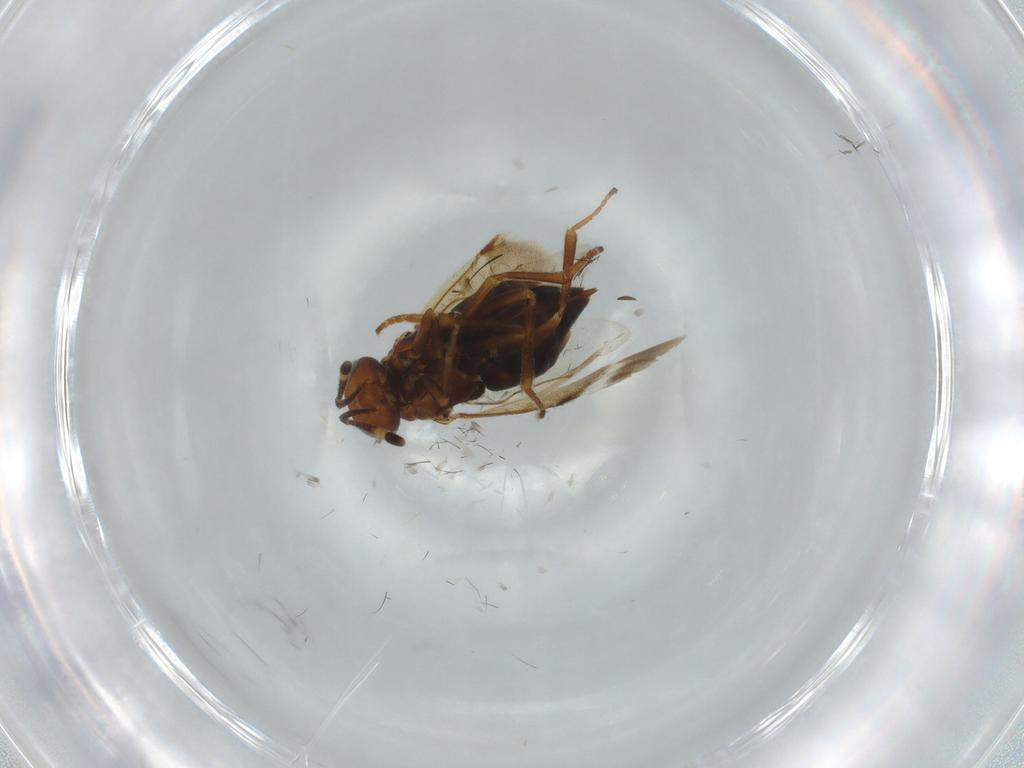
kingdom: Animalia
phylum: Arthropoda
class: Insecta
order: Hymenoptera
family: Encyrtidae
